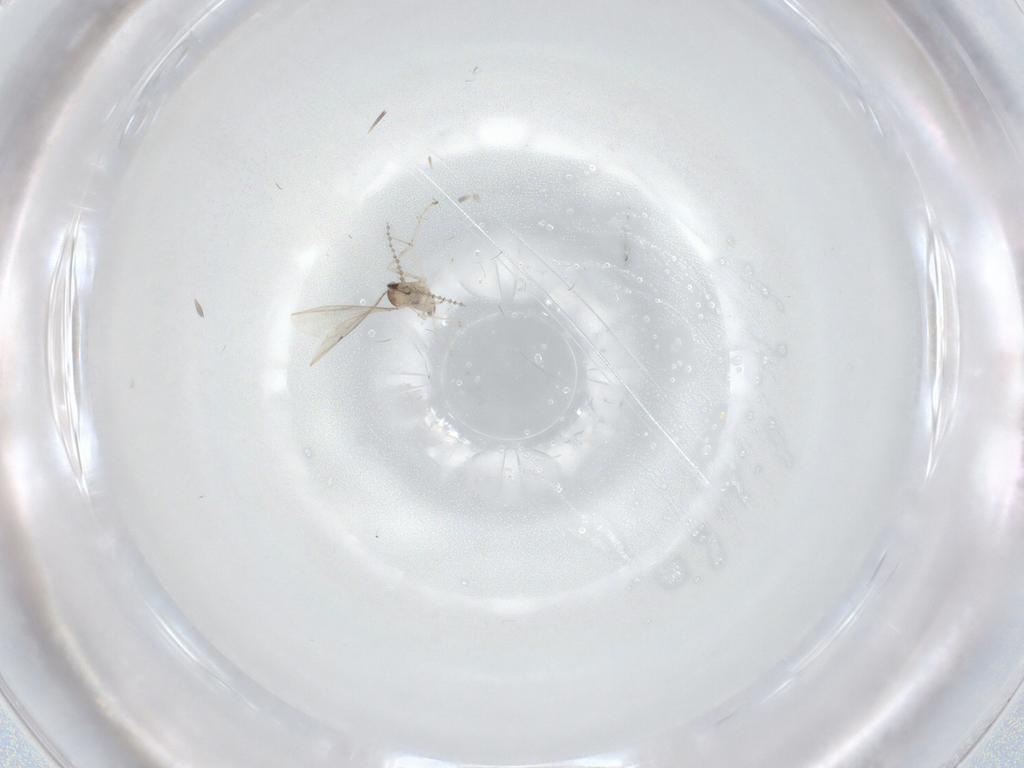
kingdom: Animalia
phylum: Arthropoda
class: Insecta
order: Diptera
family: Cecidomyiidae
